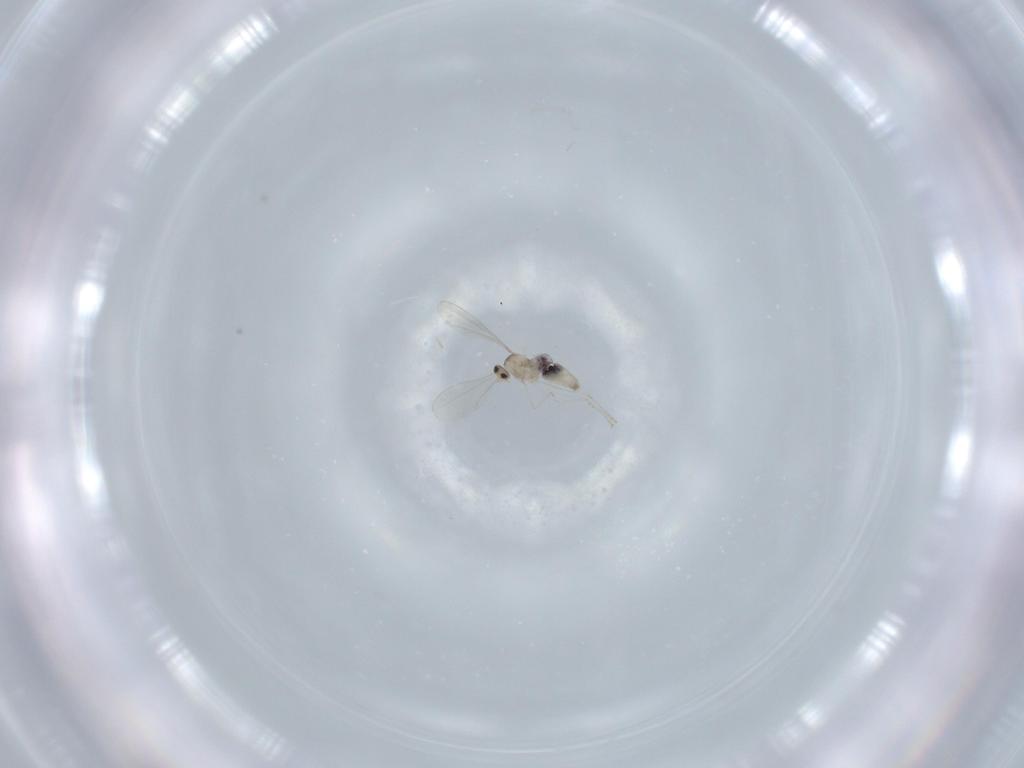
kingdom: Animalia
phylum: Arthropoda
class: Insecta
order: Diptera
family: Cecidomyiidae
